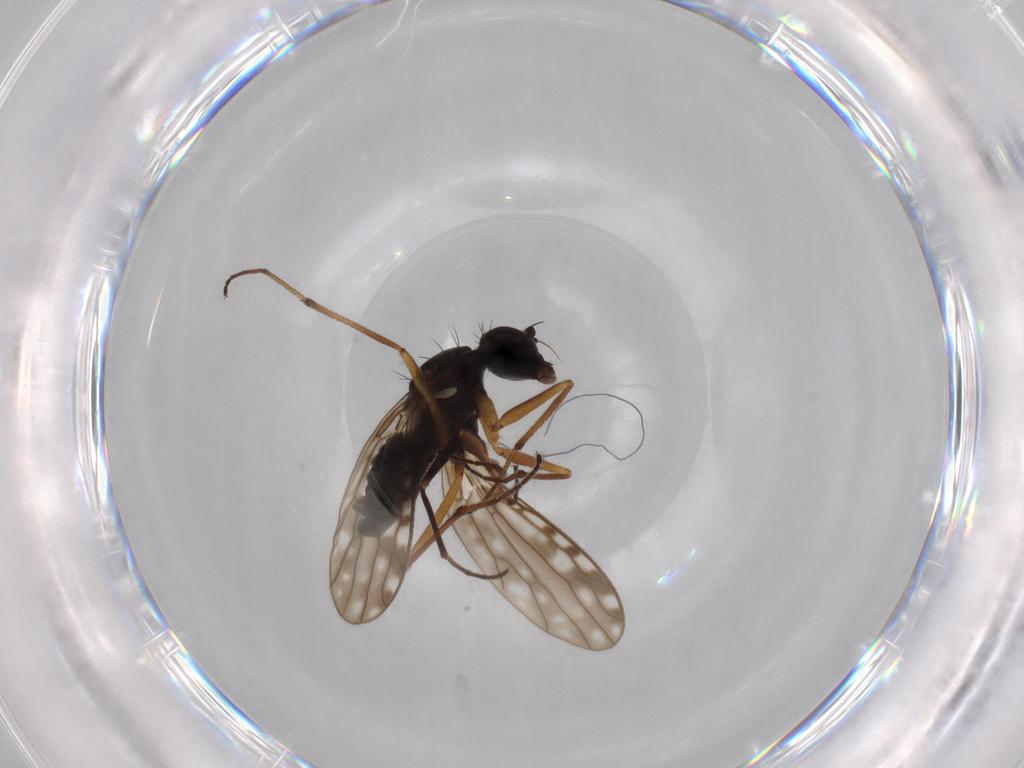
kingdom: Animalia
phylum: Arthropoda
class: Insecta
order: Diptera
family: Dolichopodidae
